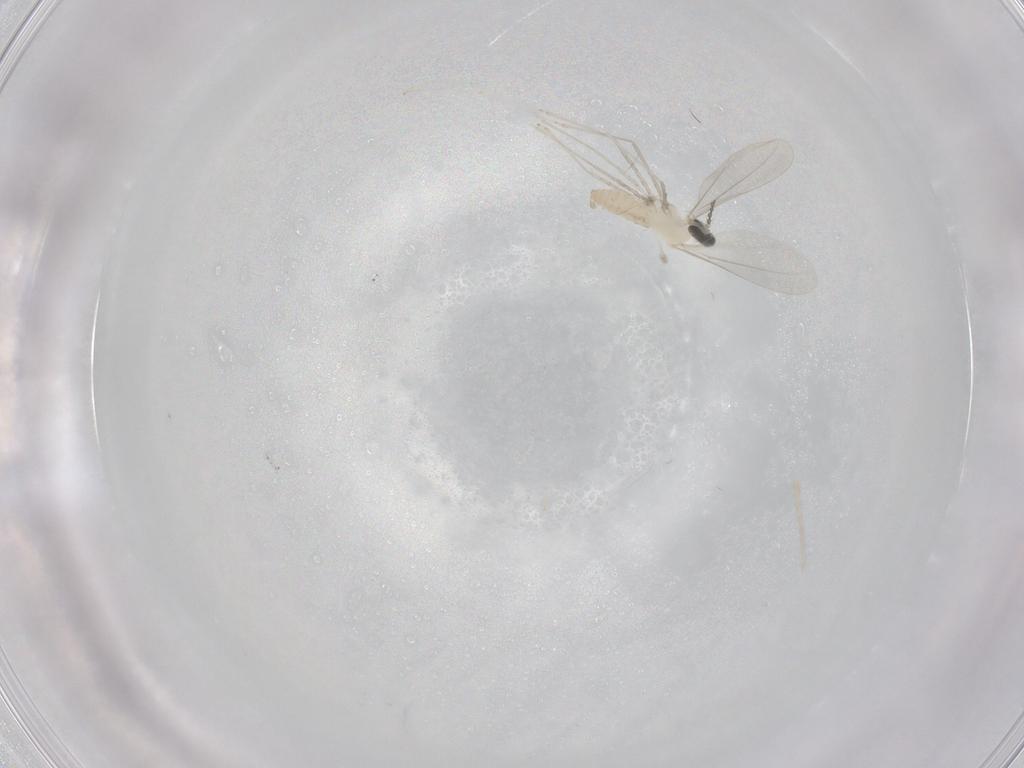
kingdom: Animalia
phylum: Arthropoda
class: Insecta
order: Diptera
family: Cecidomyiidae
